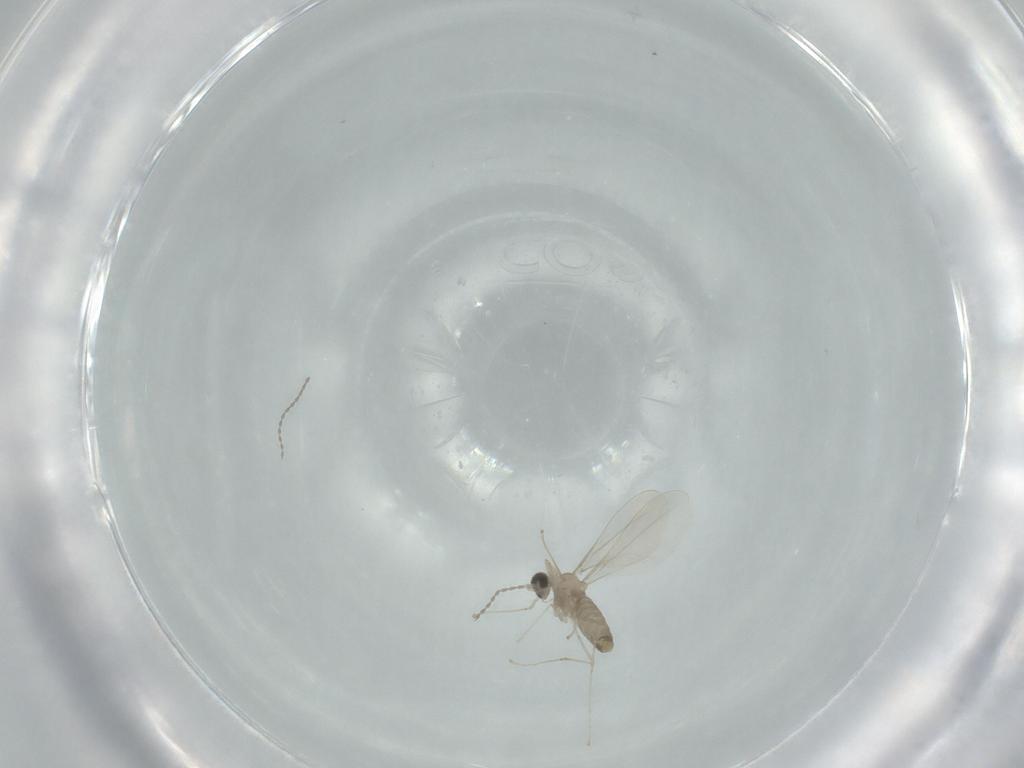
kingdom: Animalia
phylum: Arthropoda
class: Insecta
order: Diptera
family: Cecidomyiidae
